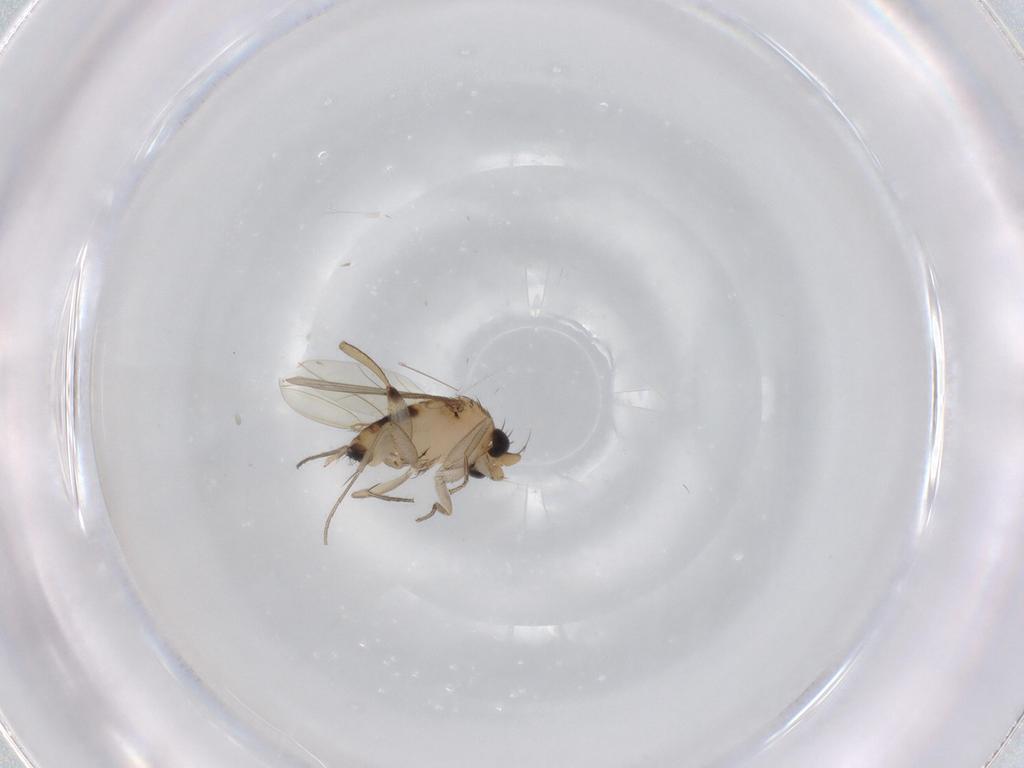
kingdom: Animalia
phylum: Arthropoda
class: Insecta
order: Diptera
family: Phoridae
